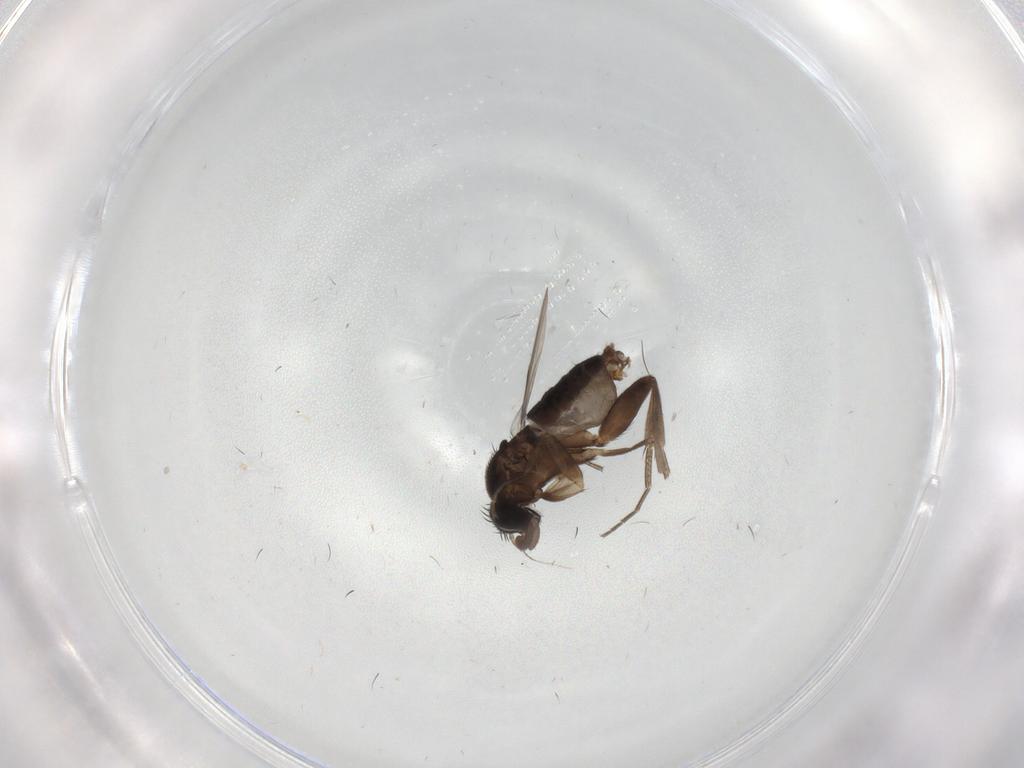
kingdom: Animalia
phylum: Arthropoda
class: Insecta
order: Diptera
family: Phoridae
